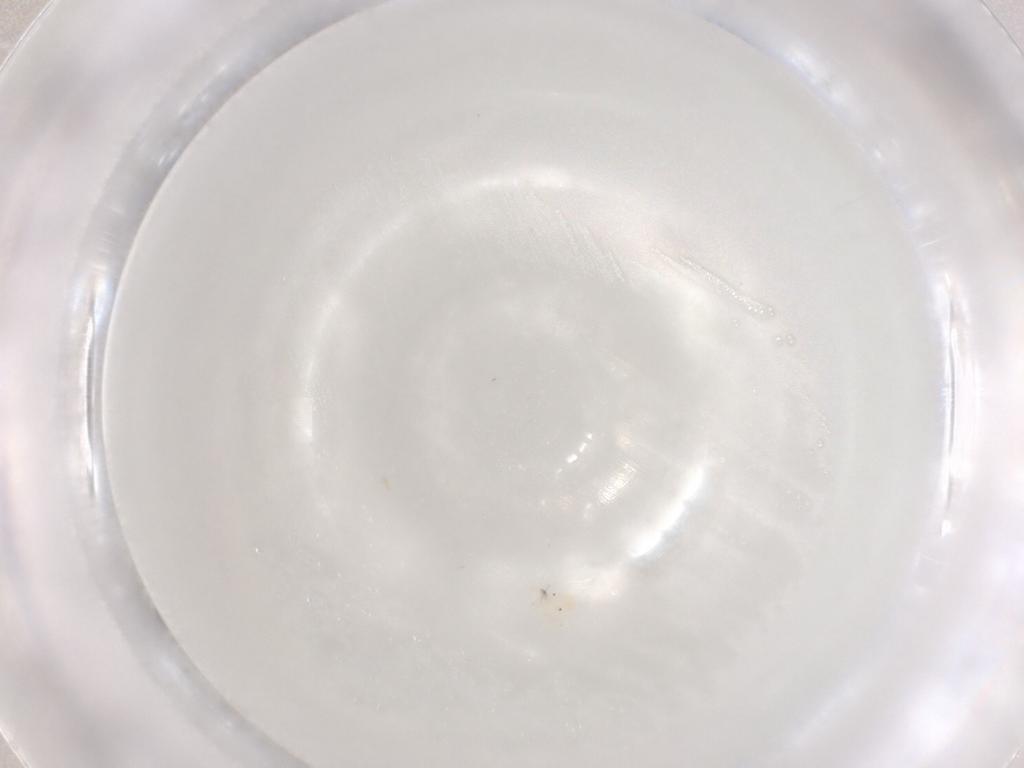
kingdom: Animalia
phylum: Arthropoda
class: Arachnida
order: Trombidiformes
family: Anystidae
